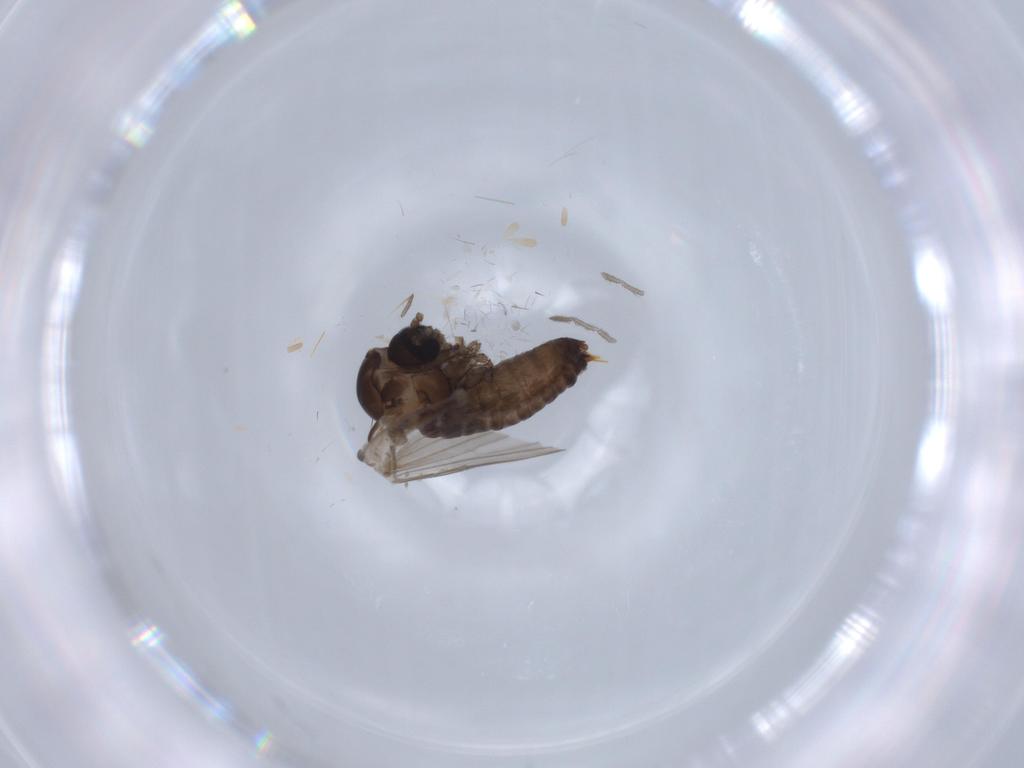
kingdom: Animalia
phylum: Arthropoda
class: Insecta
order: Diptera
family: Psychodidae
